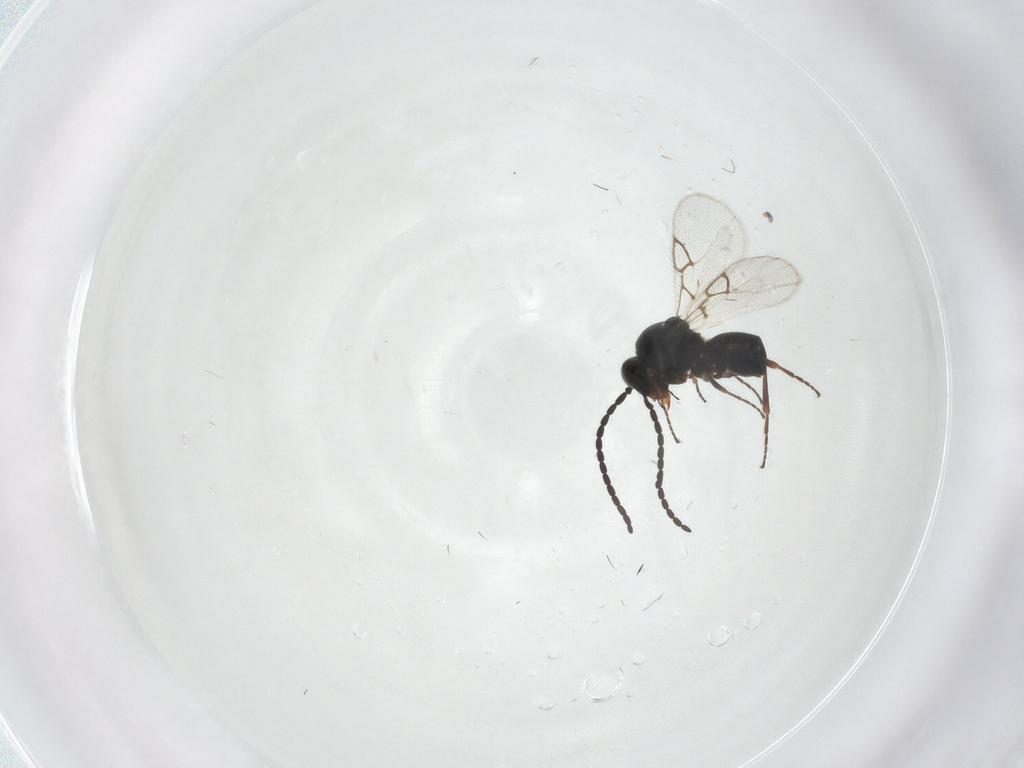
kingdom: Animalia
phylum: Arthropoda
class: Insecta
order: Hymenoptera
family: Figitidae
